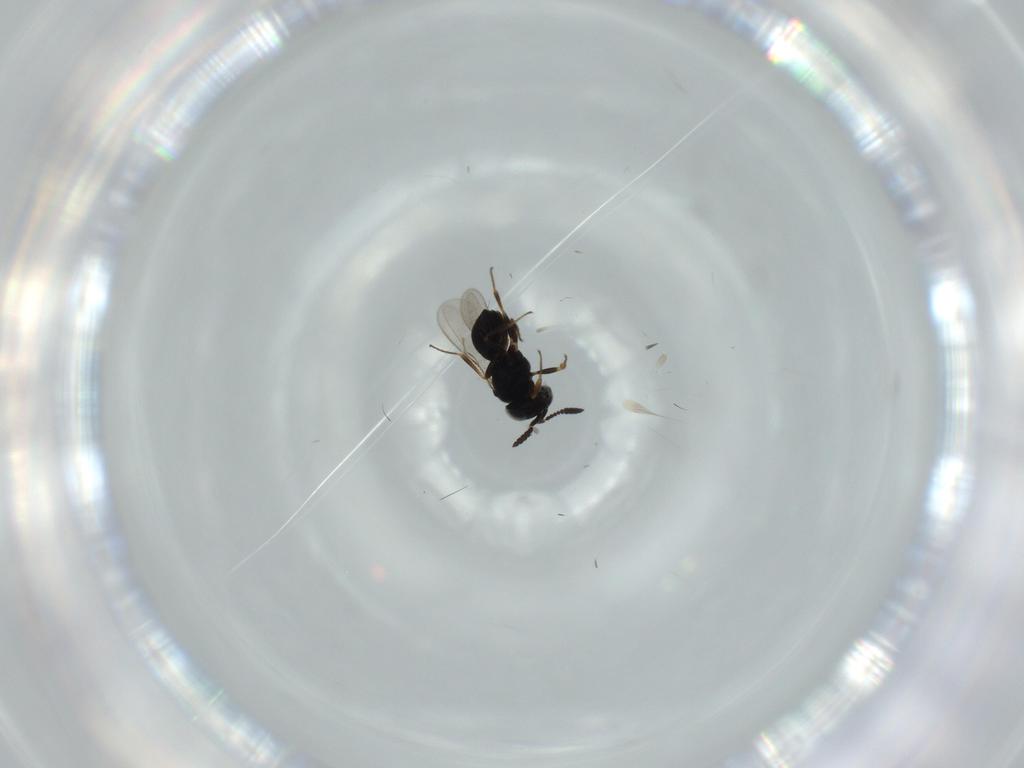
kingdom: Animalia
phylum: Arthropoda
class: Insecta
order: Hymenoptera
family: Scelionidae
